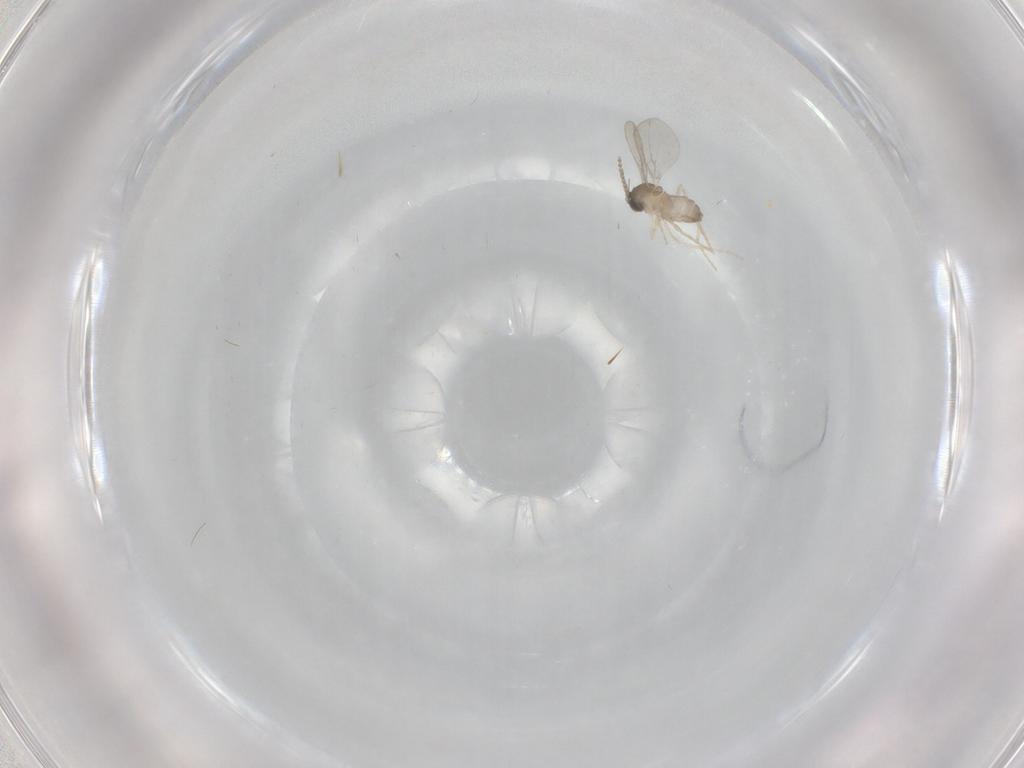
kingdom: Animalia
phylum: Arthropoda
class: Insecta
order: Diptera
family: Cecidomyiidae
